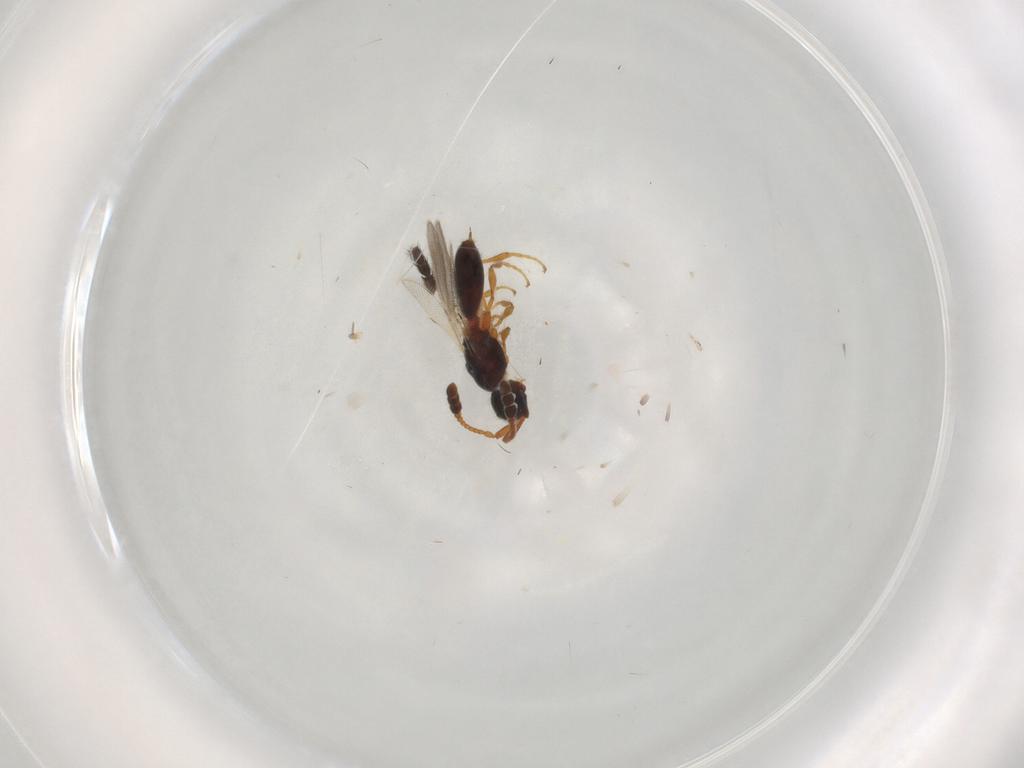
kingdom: Animalia
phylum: Arthropoda
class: Insecta
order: Hymenoptera
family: Diapriidae
